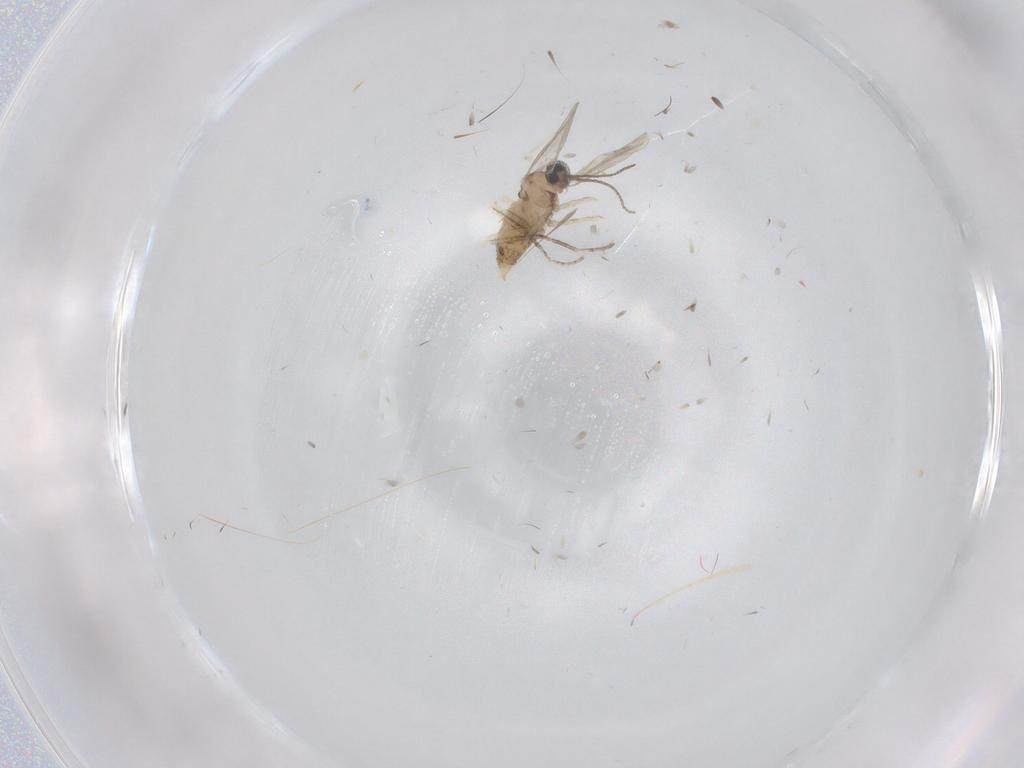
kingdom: Animalia
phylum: Arthropoda
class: Insecta
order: Diptera
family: Cecidomyiidae
